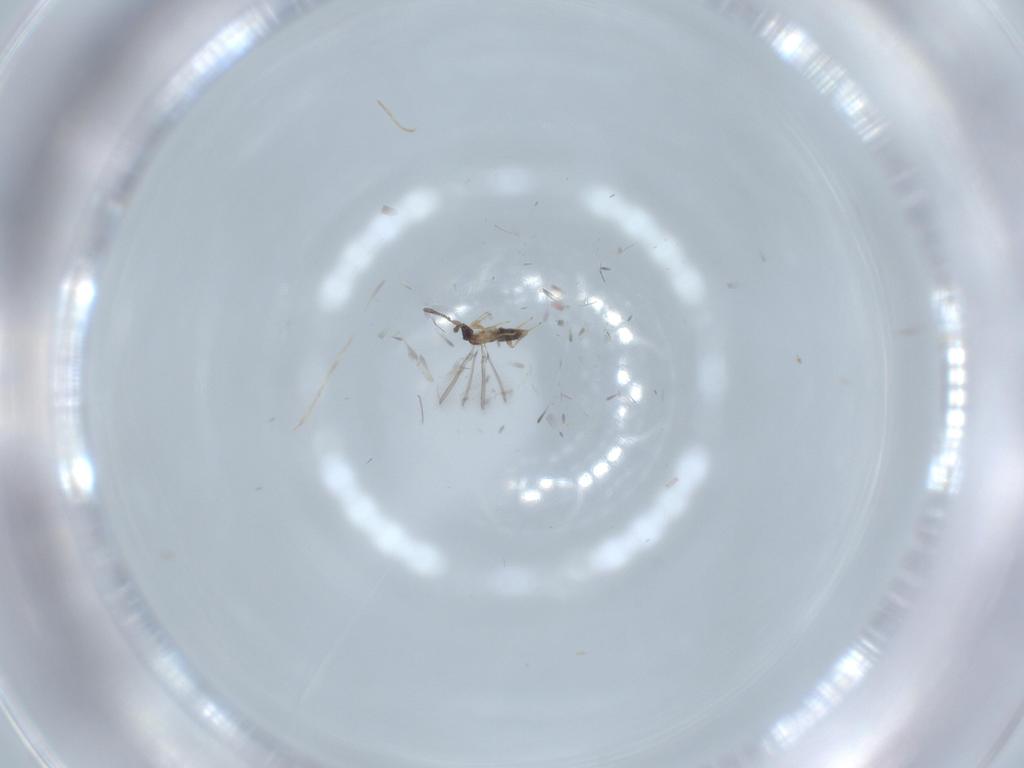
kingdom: Animalia
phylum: Arthropoda
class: Insecta
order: Hymenoptera
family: Mymaridae
